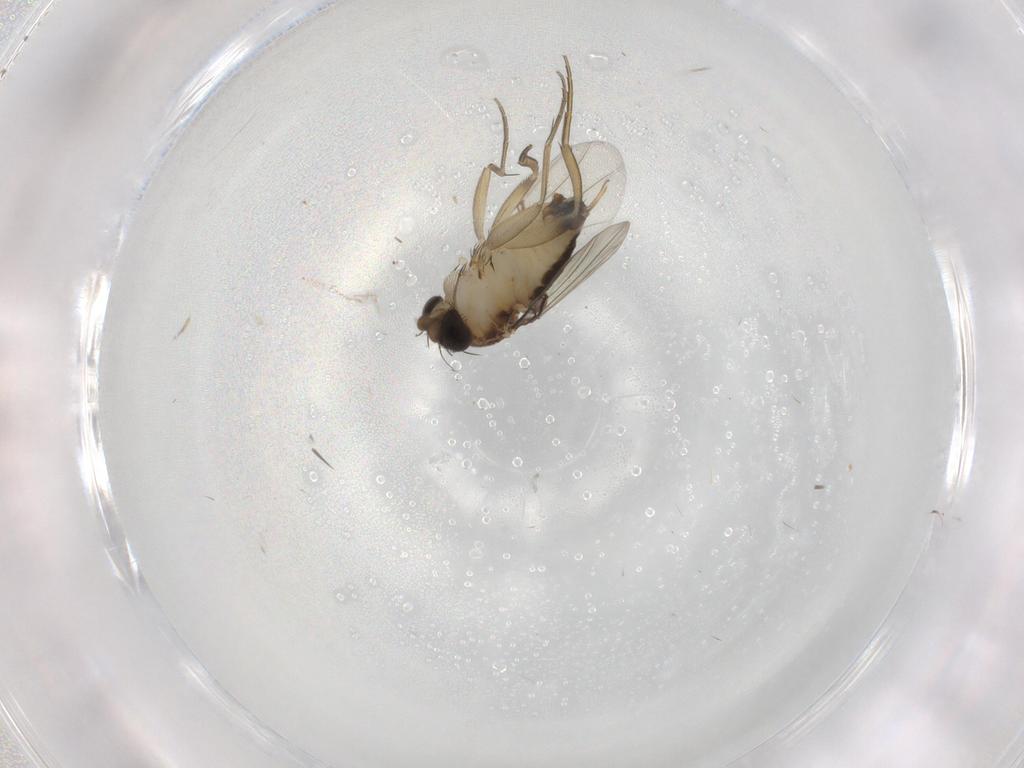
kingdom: Animalia
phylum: Arthropoda
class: Insecta
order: Diptera
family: Phoridae
